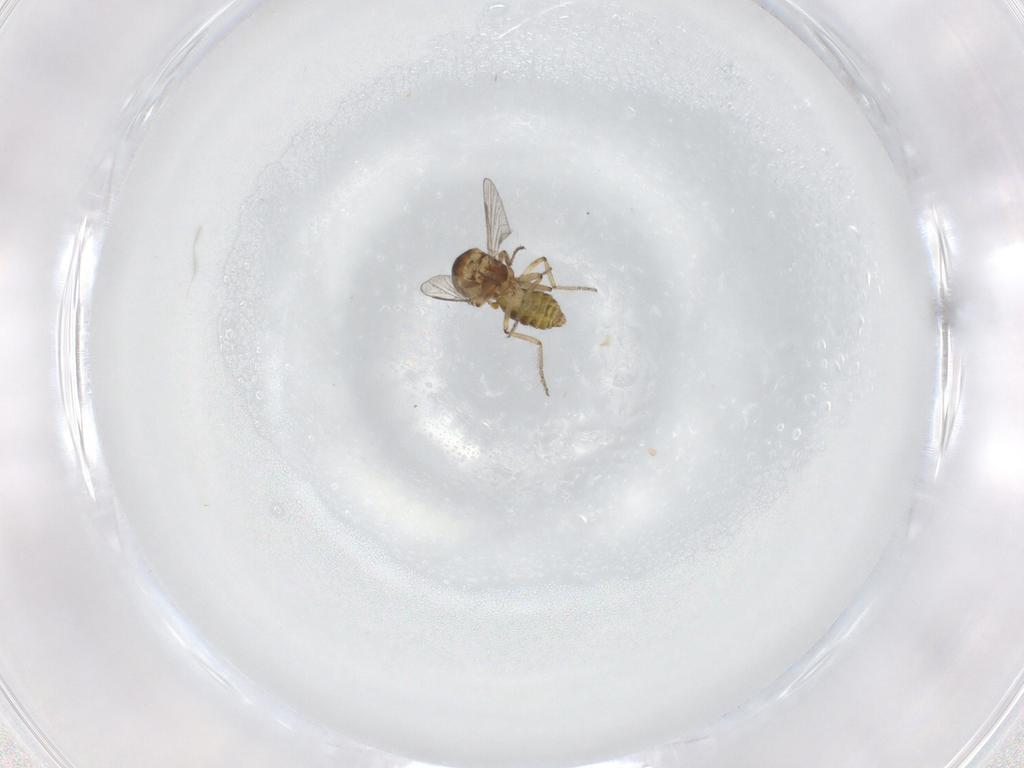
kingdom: Animalia
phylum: Arthropoda
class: Insecta
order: Diptera
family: Ceratopogonidae
